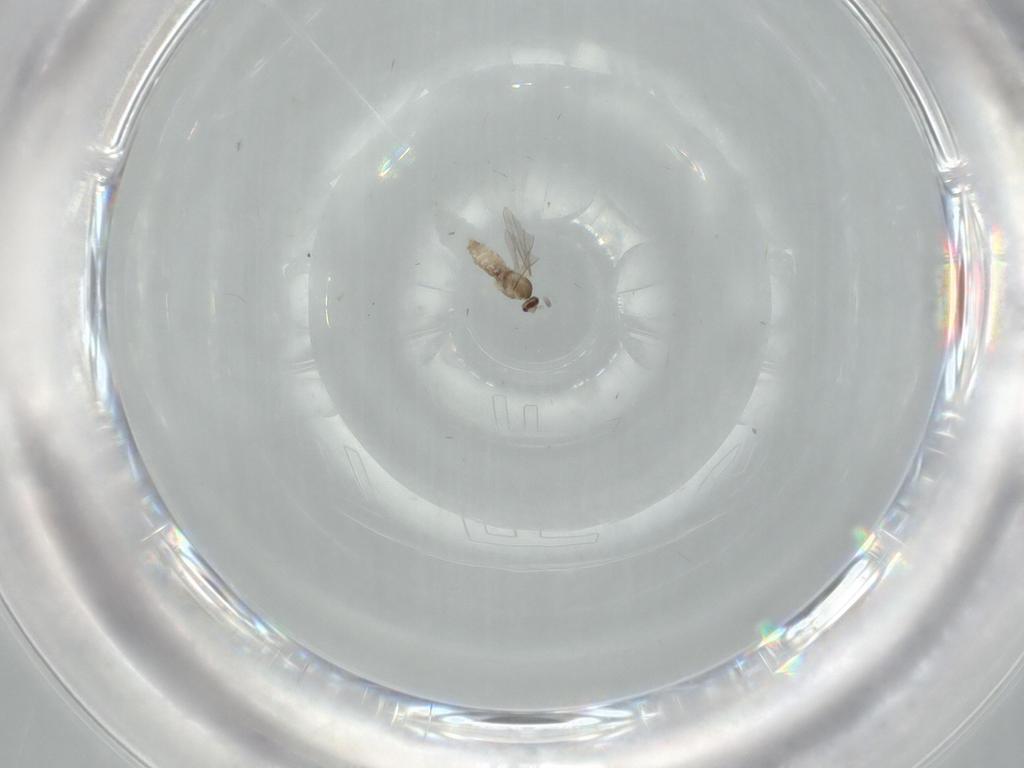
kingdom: Animalia
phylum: Arthropoda
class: Insecta
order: Diptera
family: Cecidomyiidae
